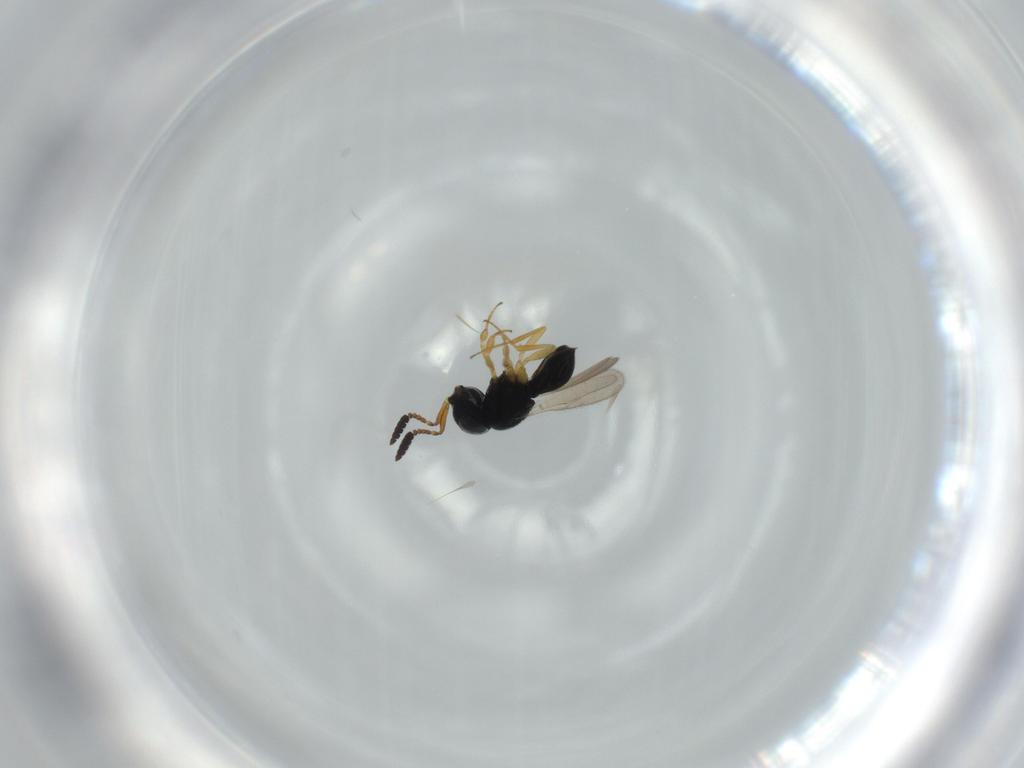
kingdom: Animalia
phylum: Arthropoda
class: Insecta
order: Hymenoptera
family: Scelionidae
